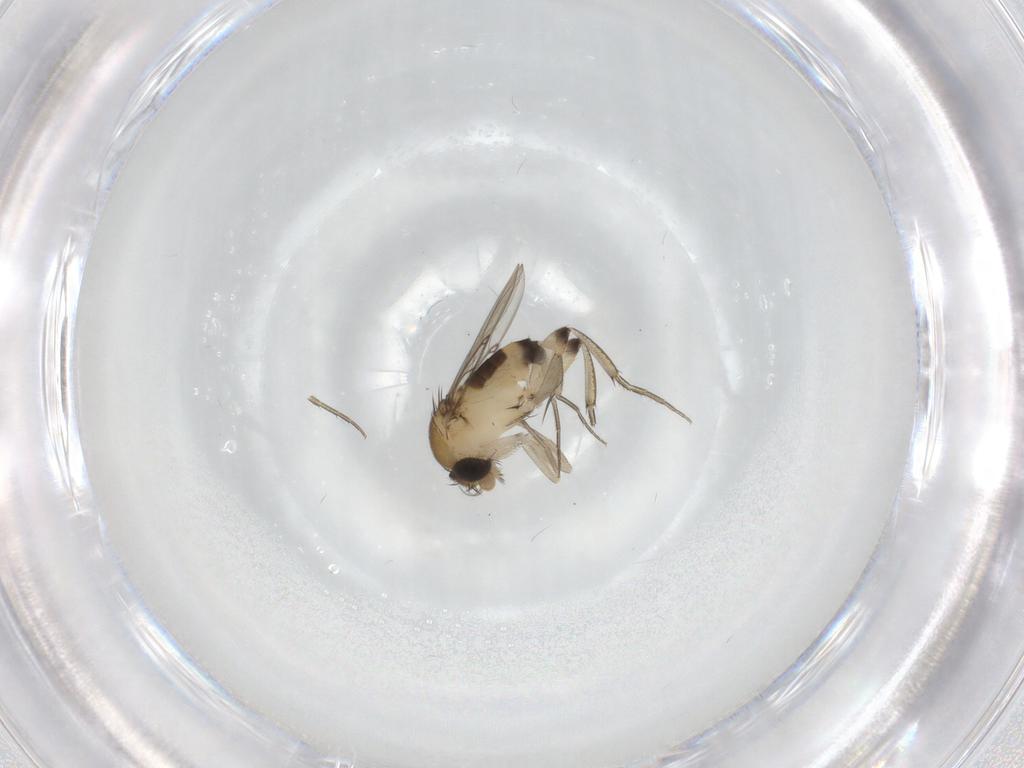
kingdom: Animalia
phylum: Arthropoda
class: Insecta
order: Diptera
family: Phoridae
